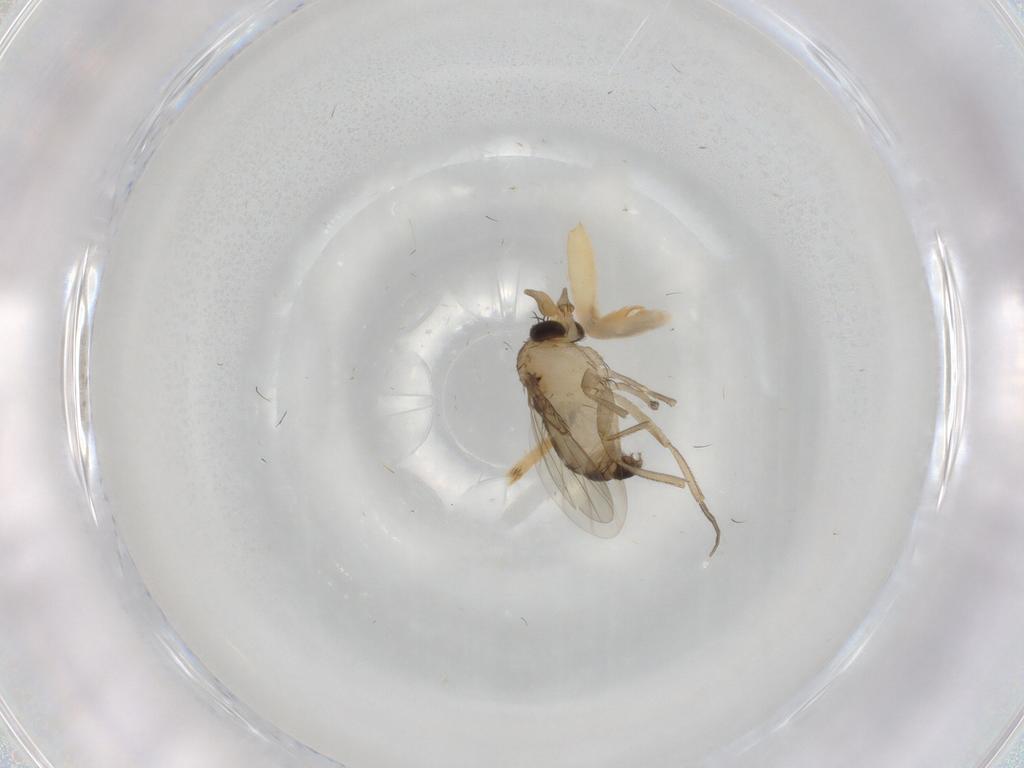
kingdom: Animalia
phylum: Arthropoda
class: Insecta
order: Diptera
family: Phoridae
